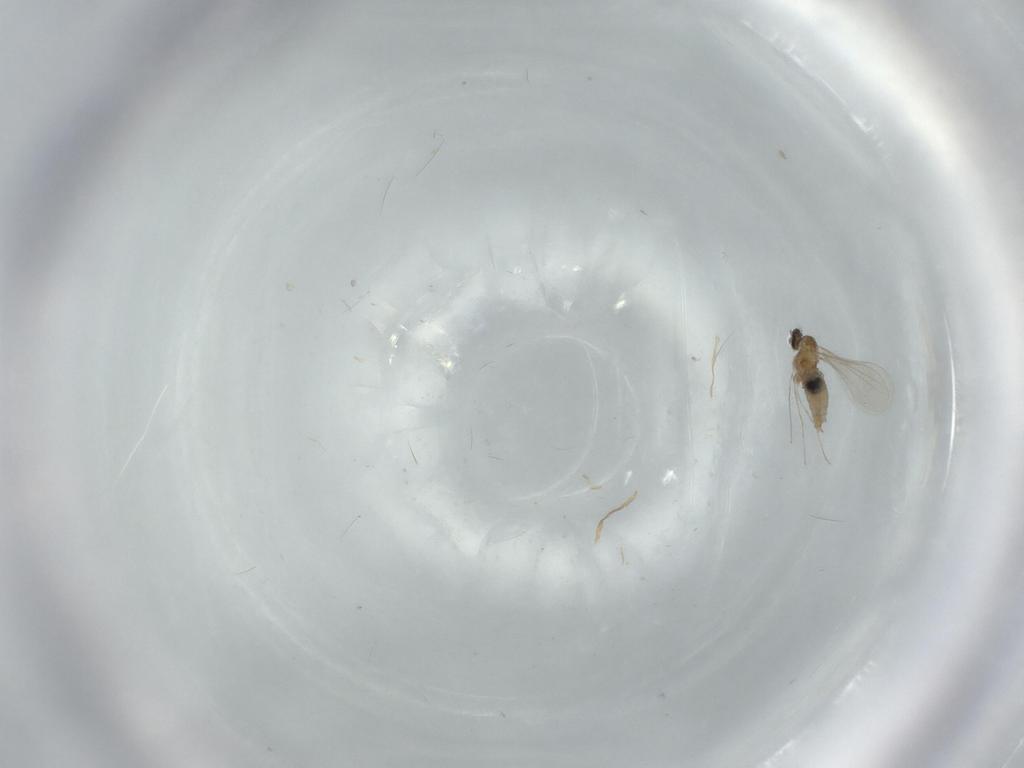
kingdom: Animalia
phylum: Arthropoda
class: Insecta
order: Diptera
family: Cecidomyiidae
